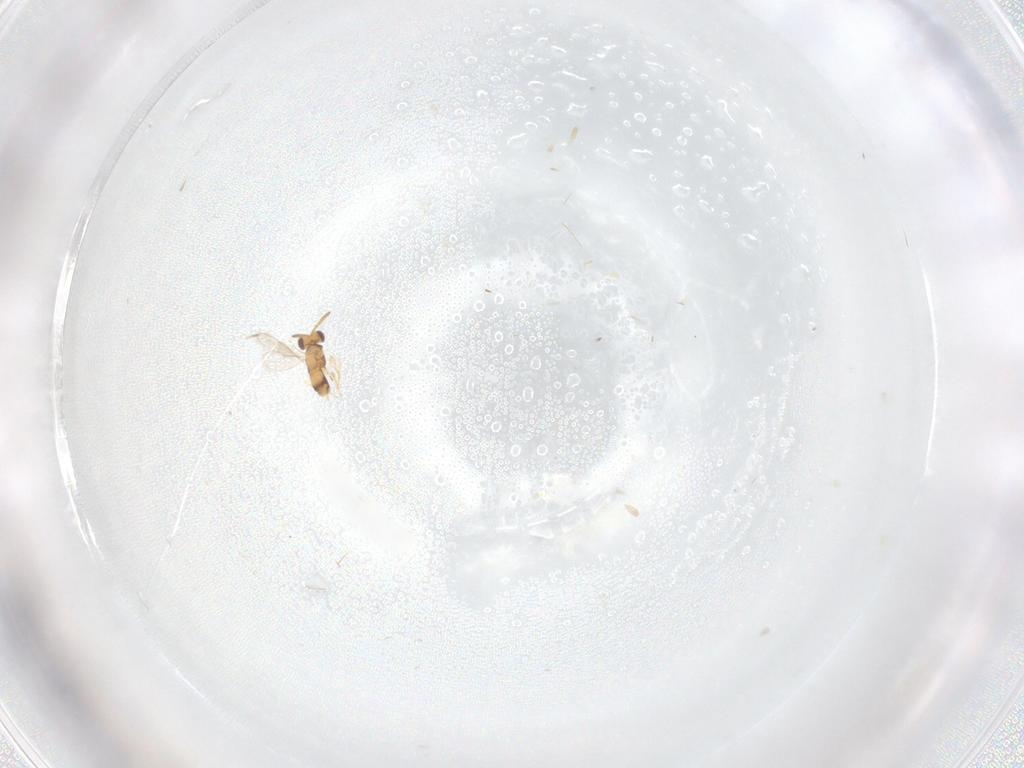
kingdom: Animalia
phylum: Arthropoda
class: Insecta
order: Hymenoptera
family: Aphelinidae
